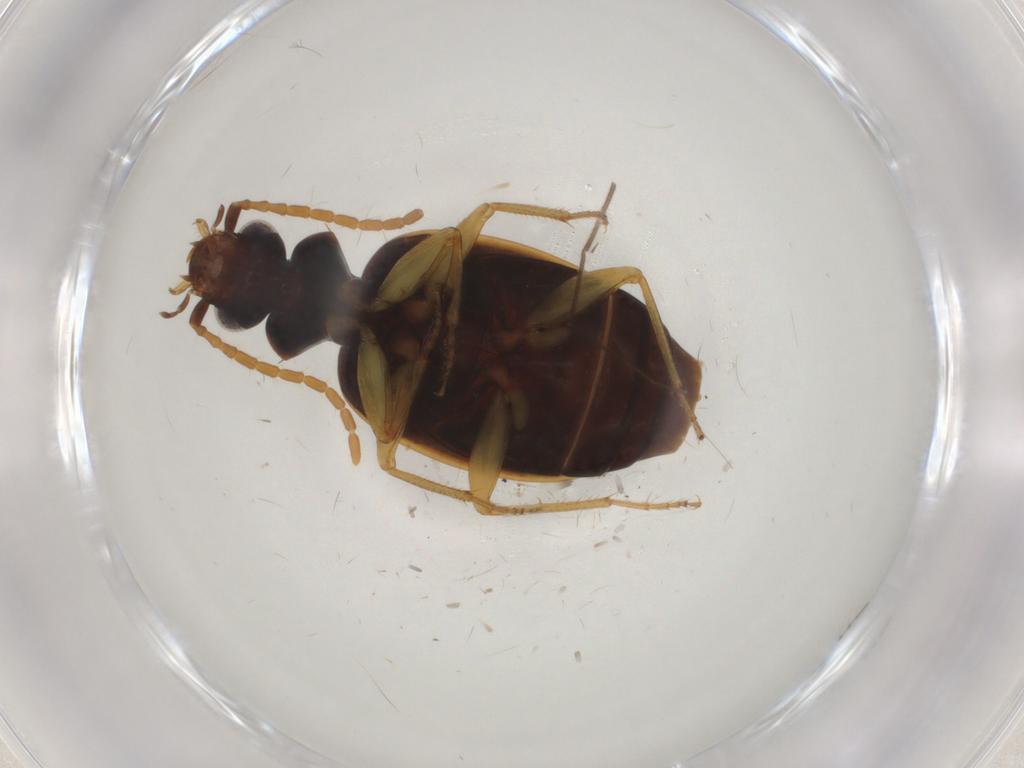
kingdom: Animalia
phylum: Arthropoda
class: Insecta
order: Coleoptera
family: Carabidae
